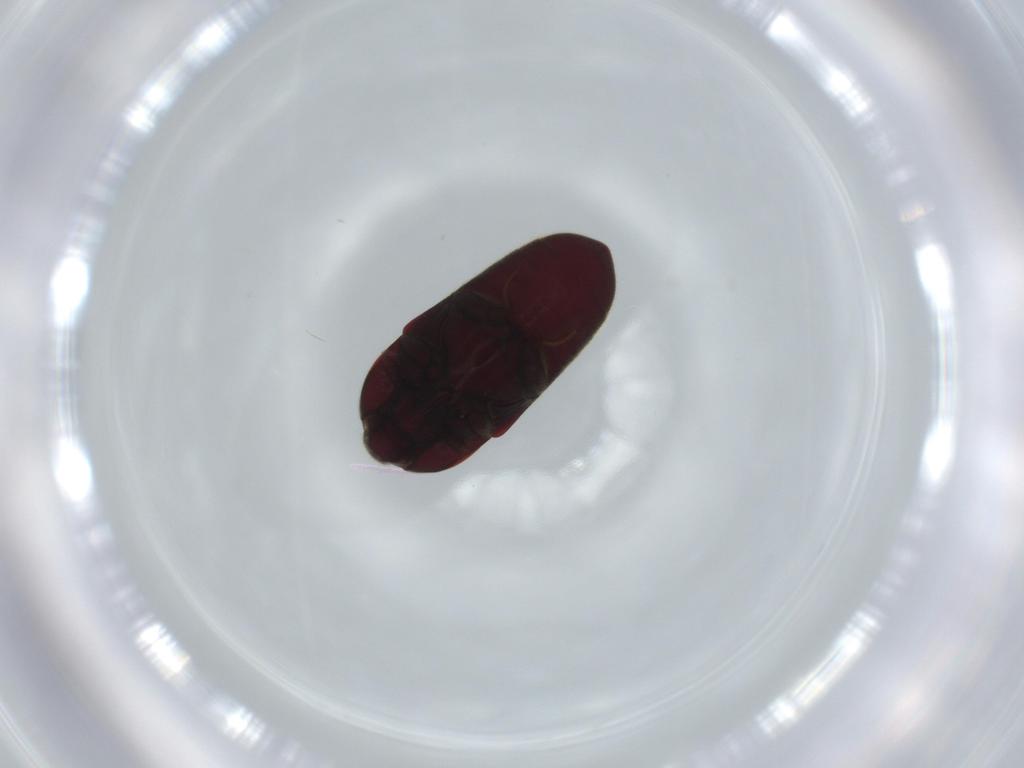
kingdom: Animalia
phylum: Arthropoda
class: Insecta
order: Coleoptera
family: Throscidae
